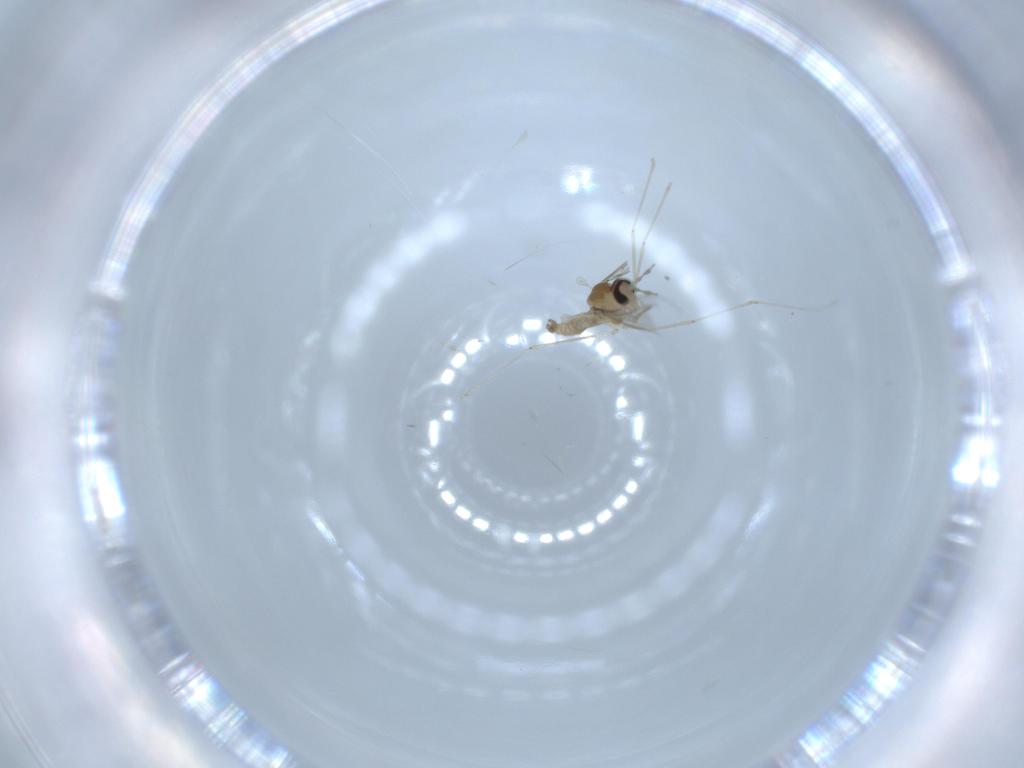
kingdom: Animalia
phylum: Arthropoda
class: Insecta
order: Diptera
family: Cecidomyiidae
